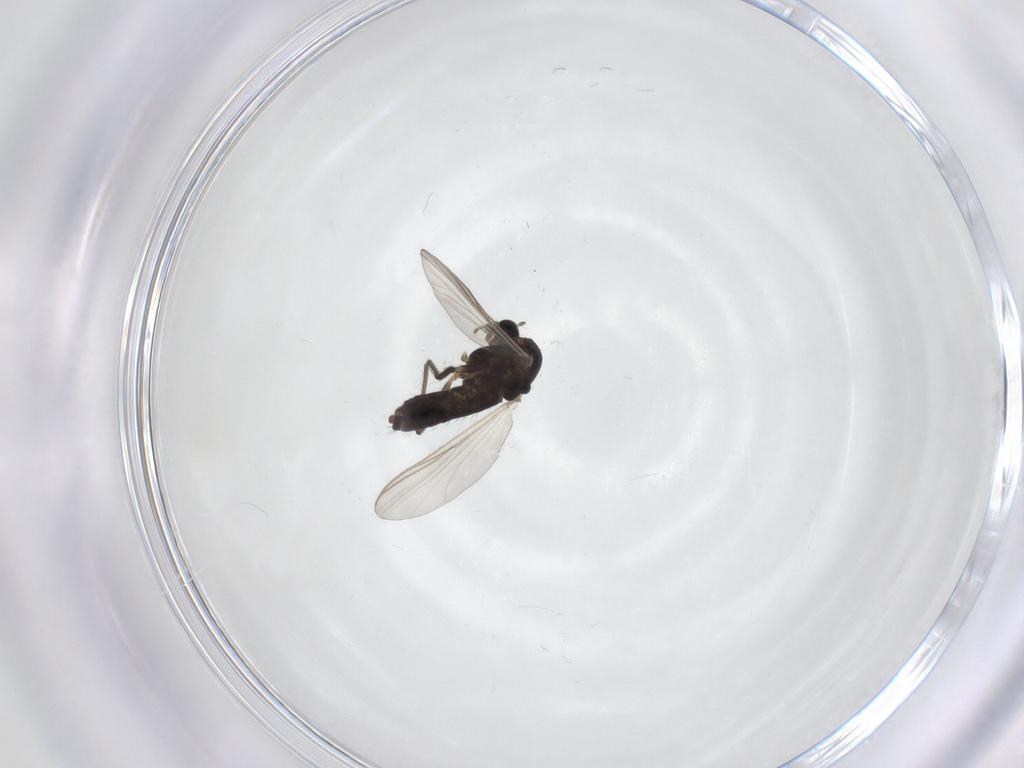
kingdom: Animalia
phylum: Arthropoda
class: Insecta
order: Diptera
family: Chironomidae
